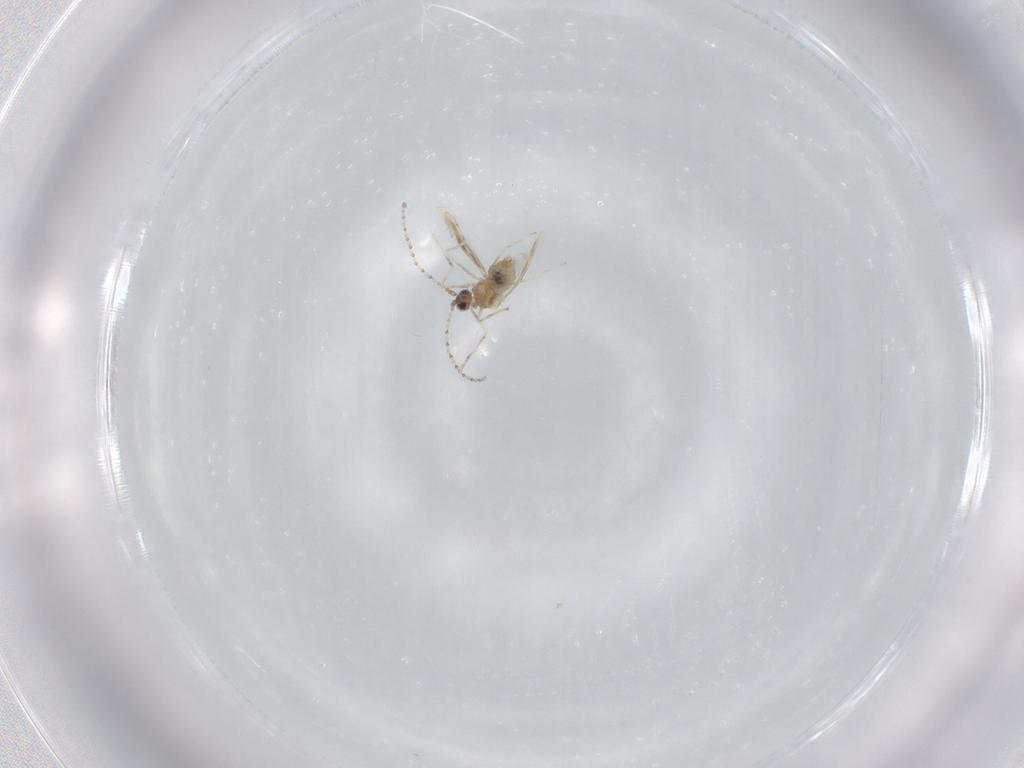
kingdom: Animalia
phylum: Arthropoda
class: Insecta
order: Diptera
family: Cecidomyiidae
